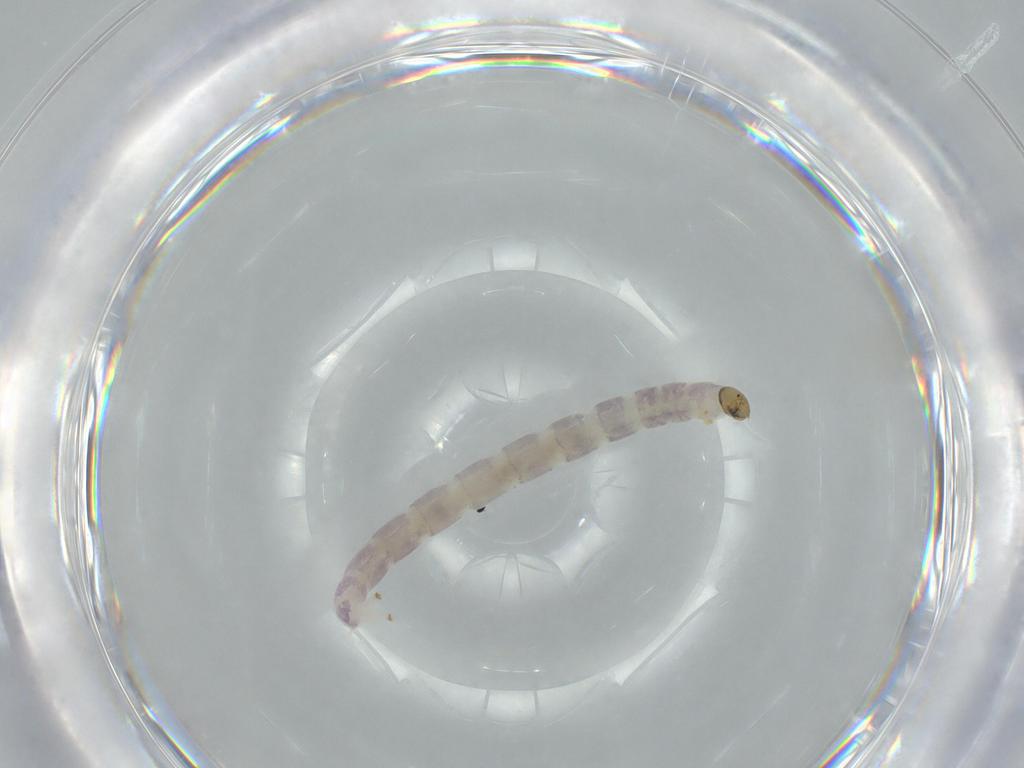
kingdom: Animalia
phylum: Arthropoda
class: Insecta
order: Diptera
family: Chironomidae
